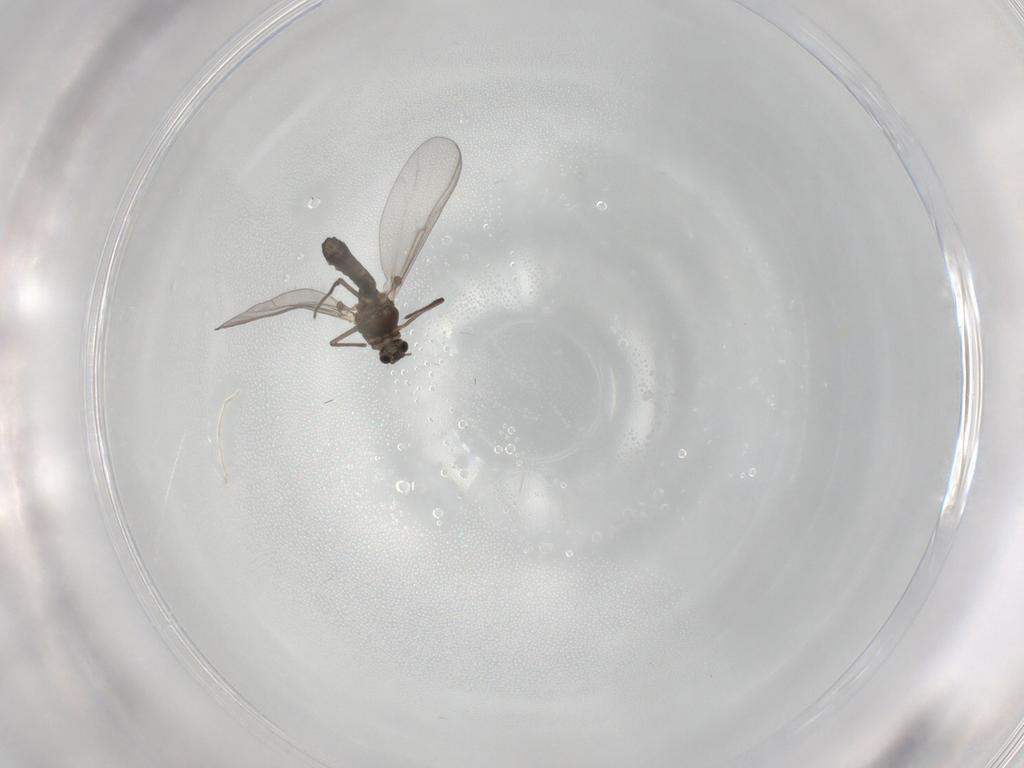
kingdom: Animalia
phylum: Arthropoda
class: Insecta
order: Diptera
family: Chironomidae
